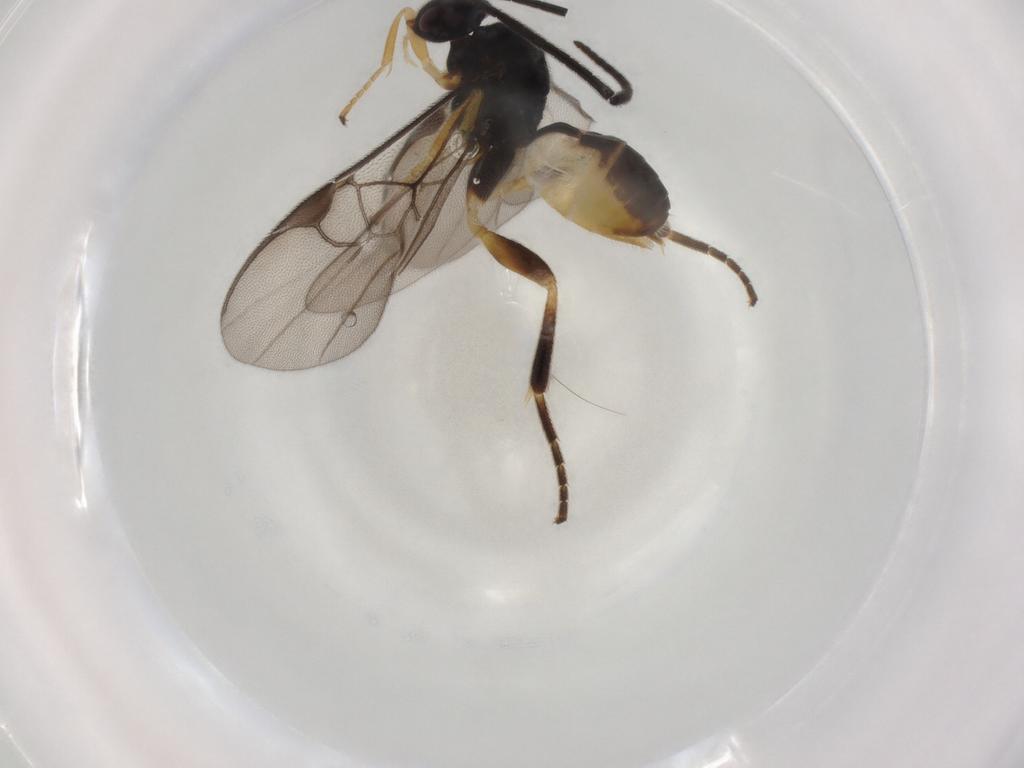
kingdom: Animalia
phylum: Arthropoda
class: Insecta
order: Hymenoptera
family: Braconidae
